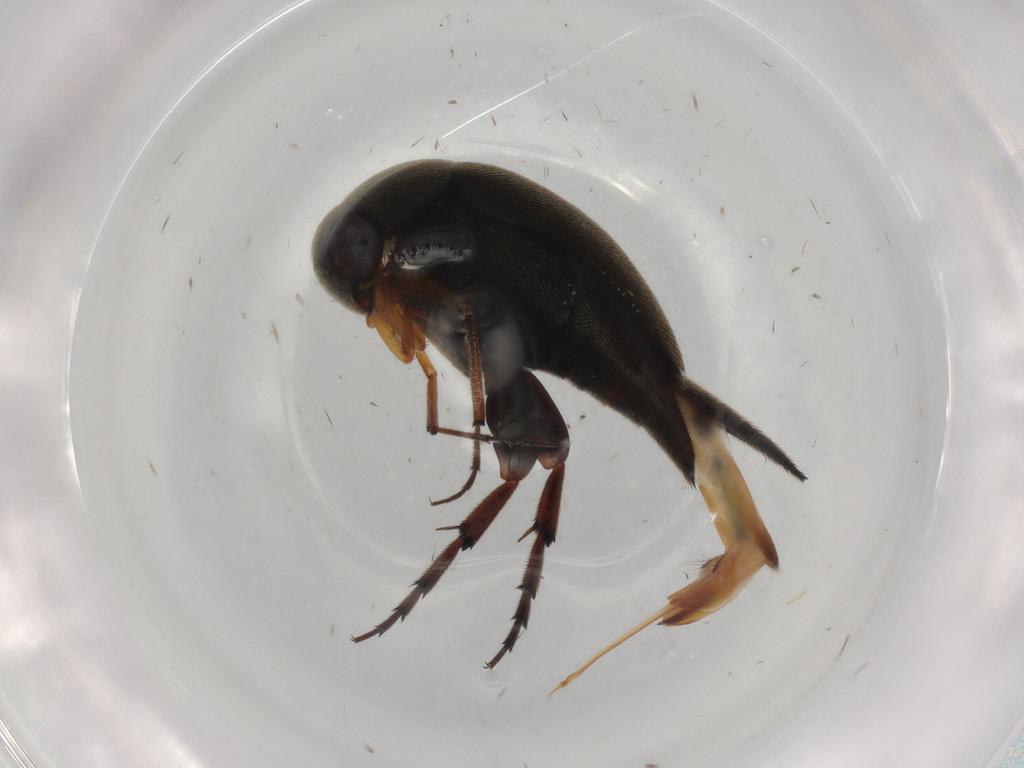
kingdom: Animalia
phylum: Arthropoda
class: Insecta
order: Coleoptera
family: Mordellidae
